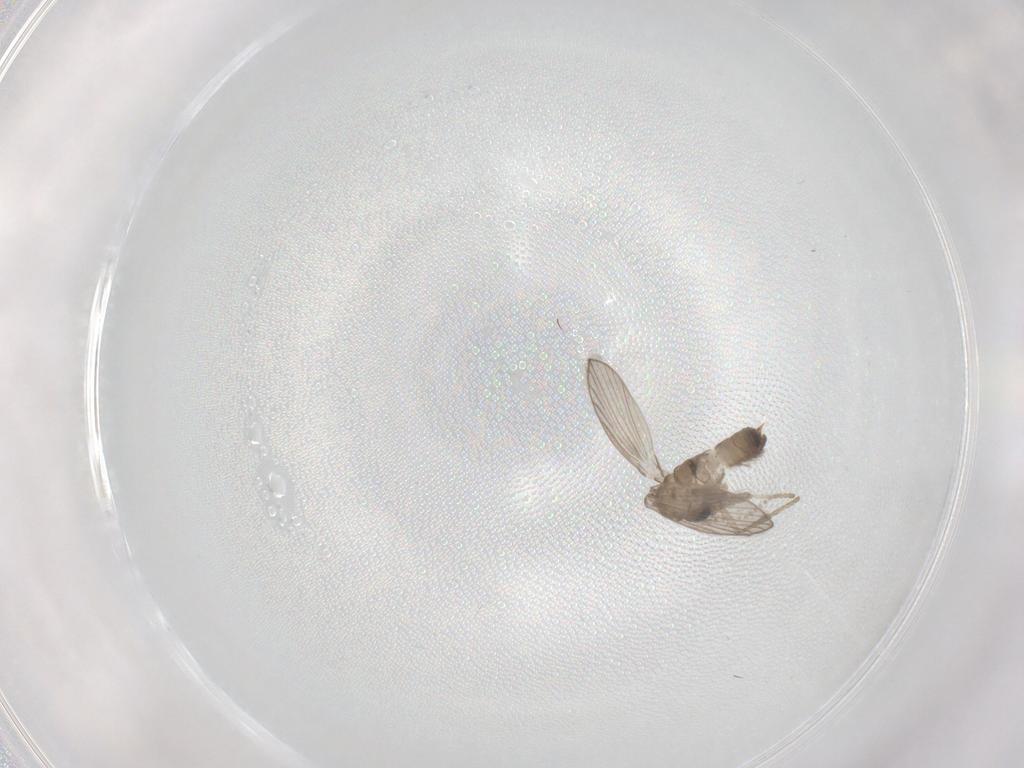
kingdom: Animalia
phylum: Arthropoda
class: Insecta
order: Diptera
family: Psychodidae
